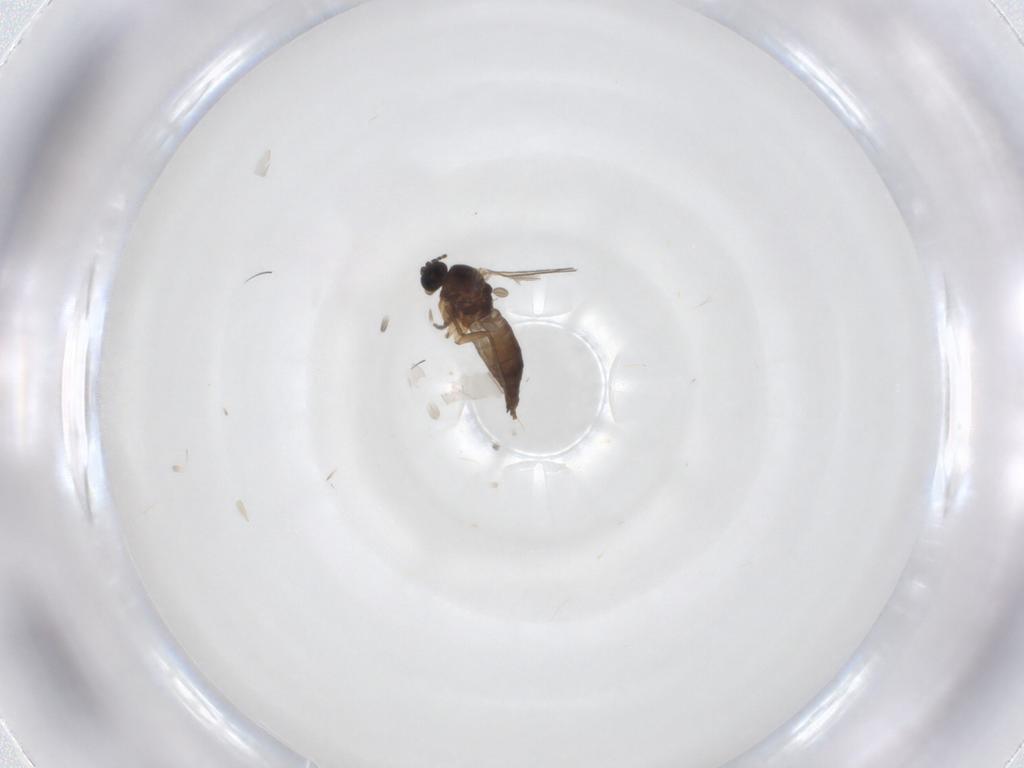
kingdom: Animalia
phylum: Arthropoda
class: Insecta
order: Diptera
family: Sciaridae
